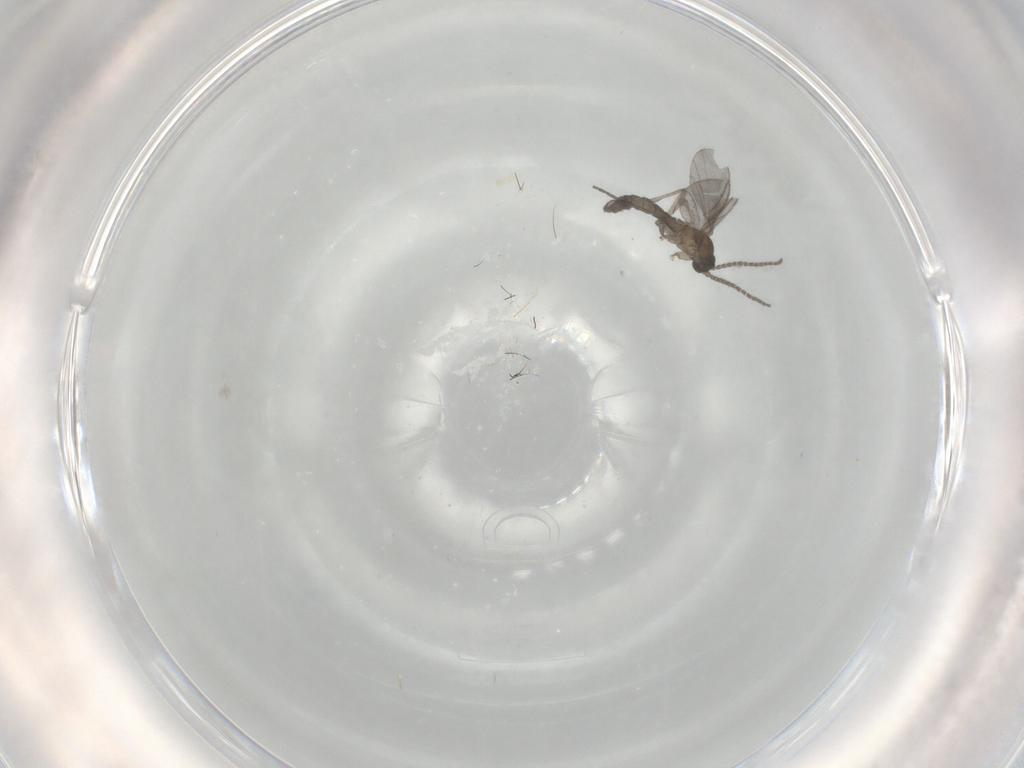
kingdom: Animalia
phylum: Arthropoda
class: Insecta
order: Diptera
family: Sciaridae
